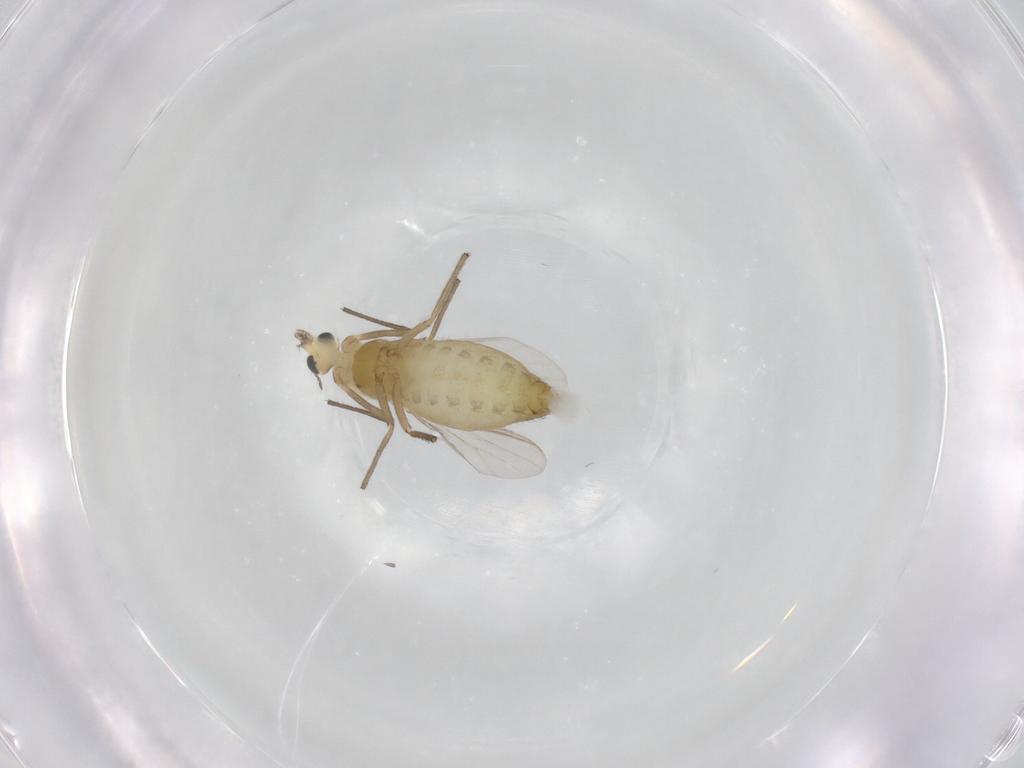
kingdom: Animalia
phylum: Arthropoda
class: Insecta
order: Diptera
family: Chironomidae
